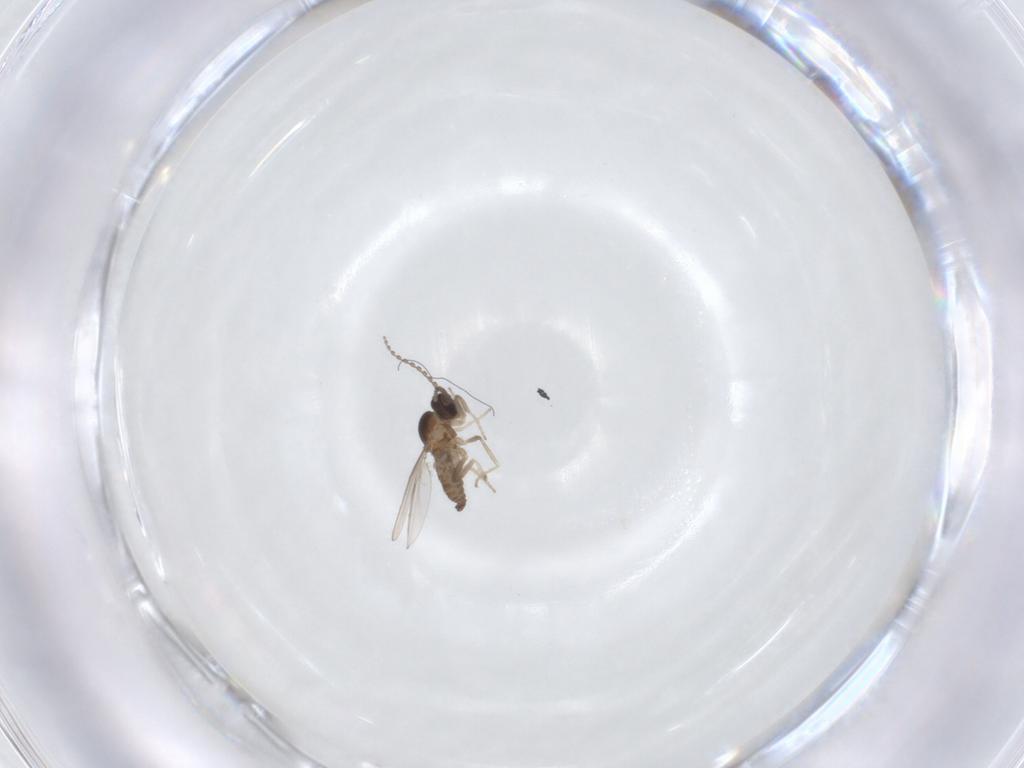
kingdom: Animalia
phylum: Arthropoda
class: Insecta
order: Diptera
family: Cecidomyiidae
